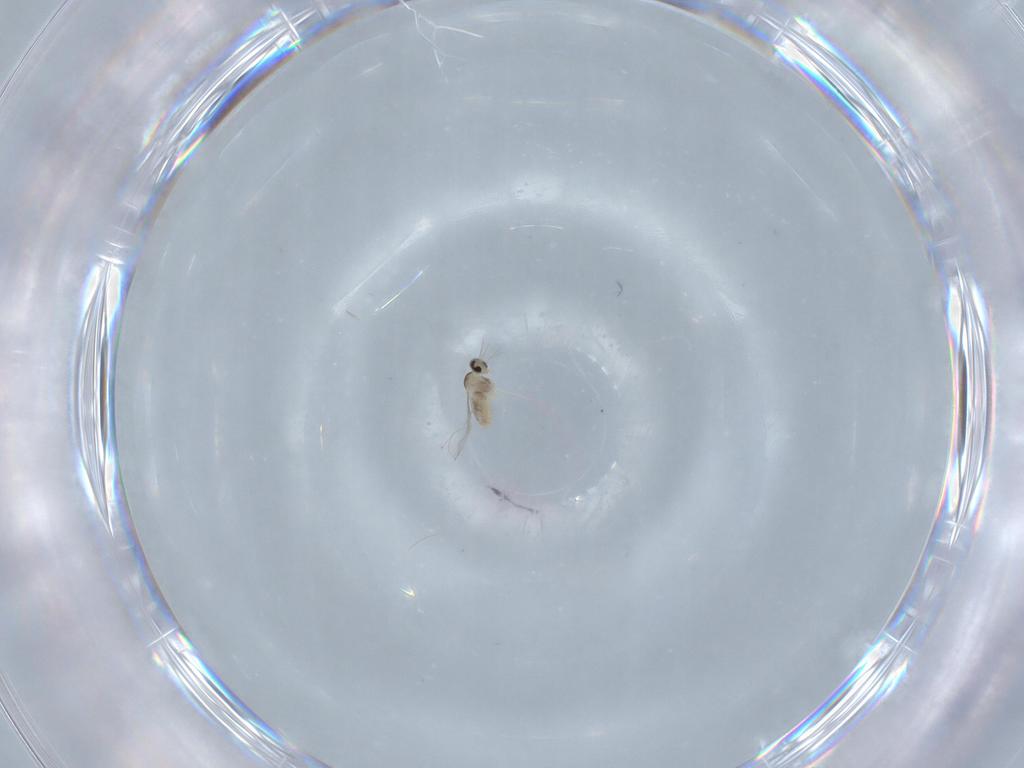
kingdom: Animalia
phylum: Arthropoda
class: Insecta
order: Diptera
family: Cecidomyiidae
